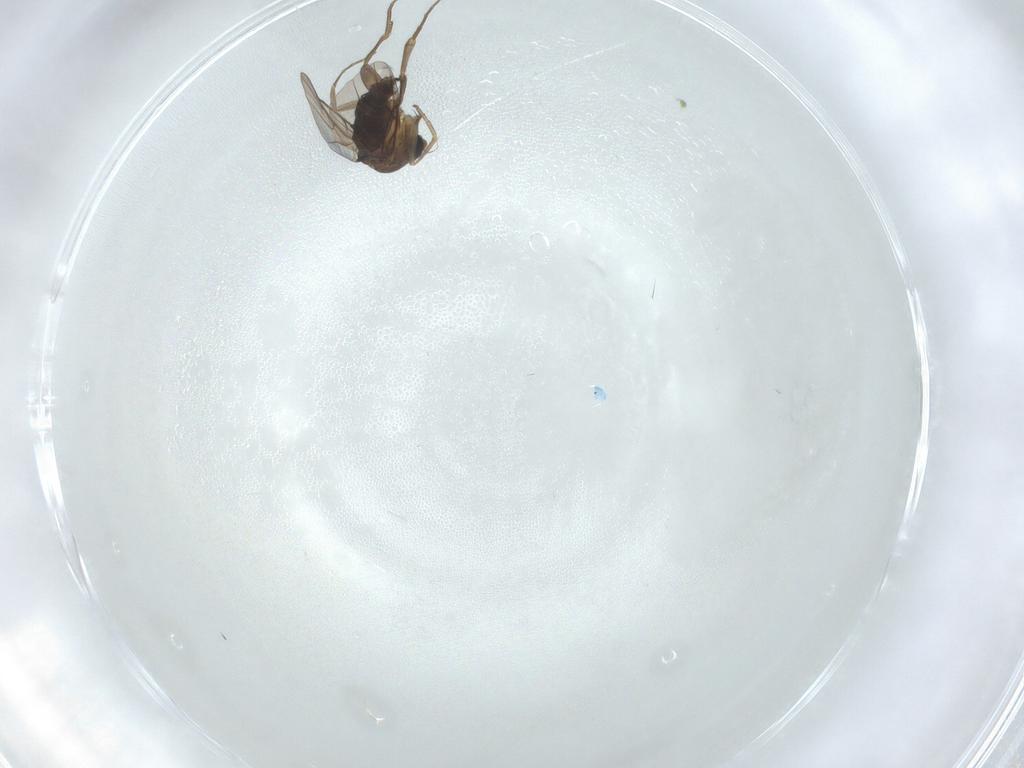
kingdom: Animalia
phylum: Arthropoda
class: Insecta
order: Diptera
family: Phoridae
